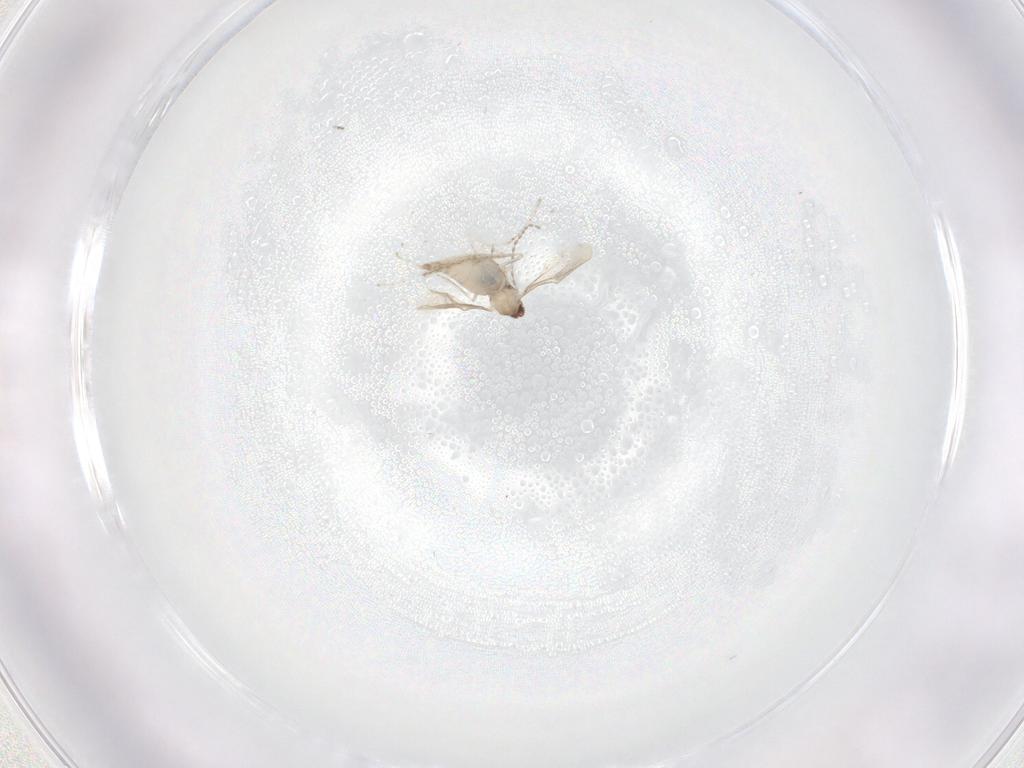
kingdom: Animalia
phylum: Arthropoda
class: Insecta
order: Diptera
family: Cecidomyiidae
